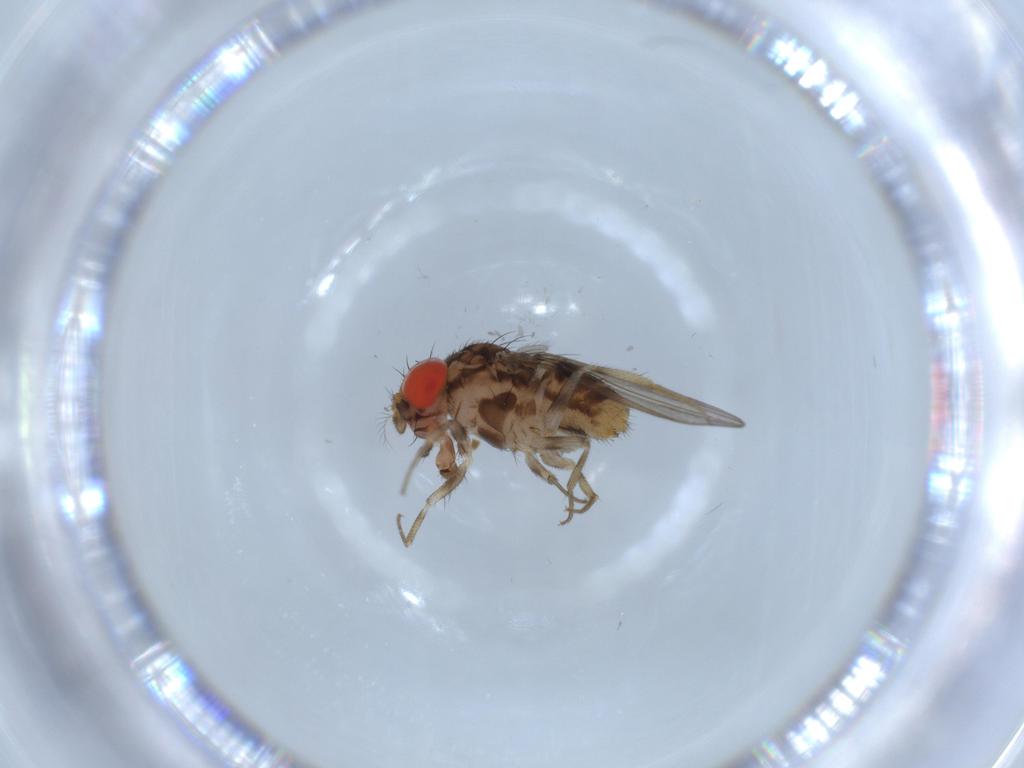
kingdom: Animalia
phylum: Arthropoda
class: Insecta
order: Diptera
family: Drosophilidae
